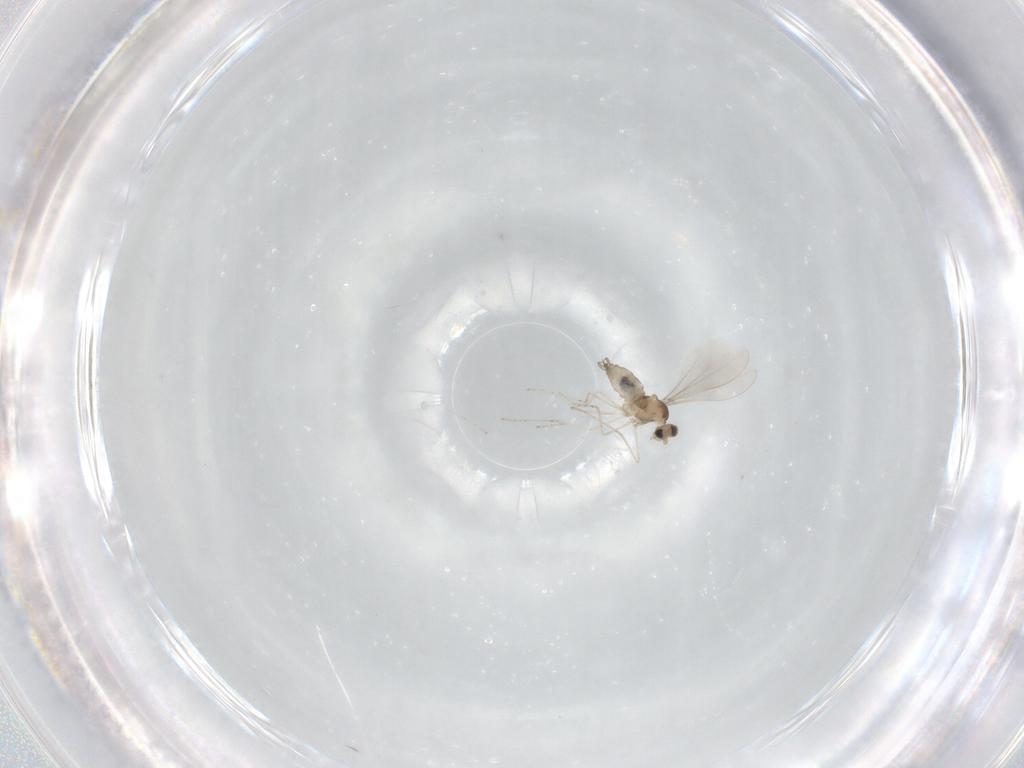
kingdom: Animalia
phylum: Arthropoda
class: Insecta
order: Diptera
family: Cecidomyiidae
